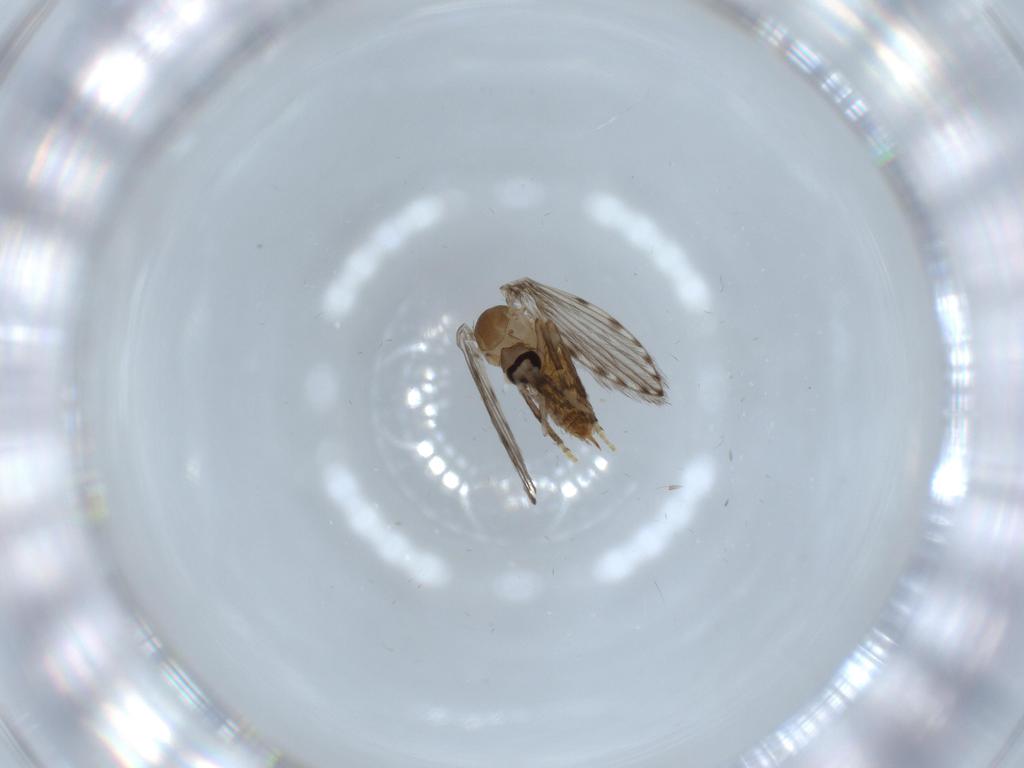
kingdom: Animalia
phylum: Arthropoda
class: Insecta
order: Diptera
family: Psychodidae
